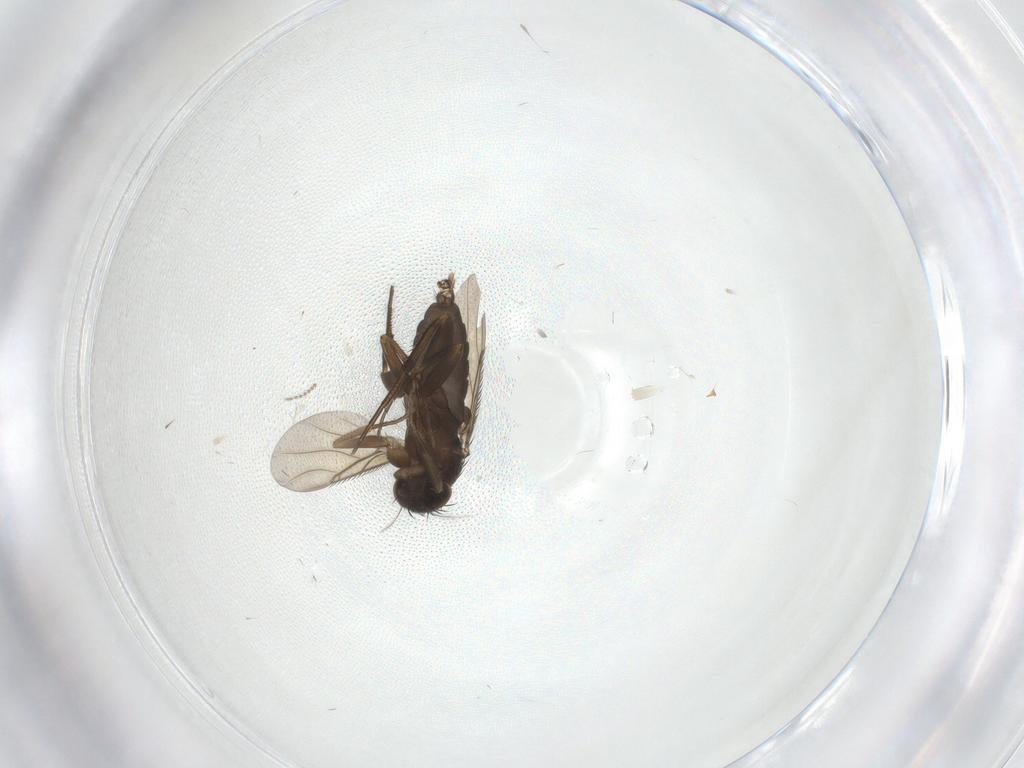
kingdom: Animalia
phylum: Arthropoda
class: Insecta
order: Diptera
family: Phoridae
